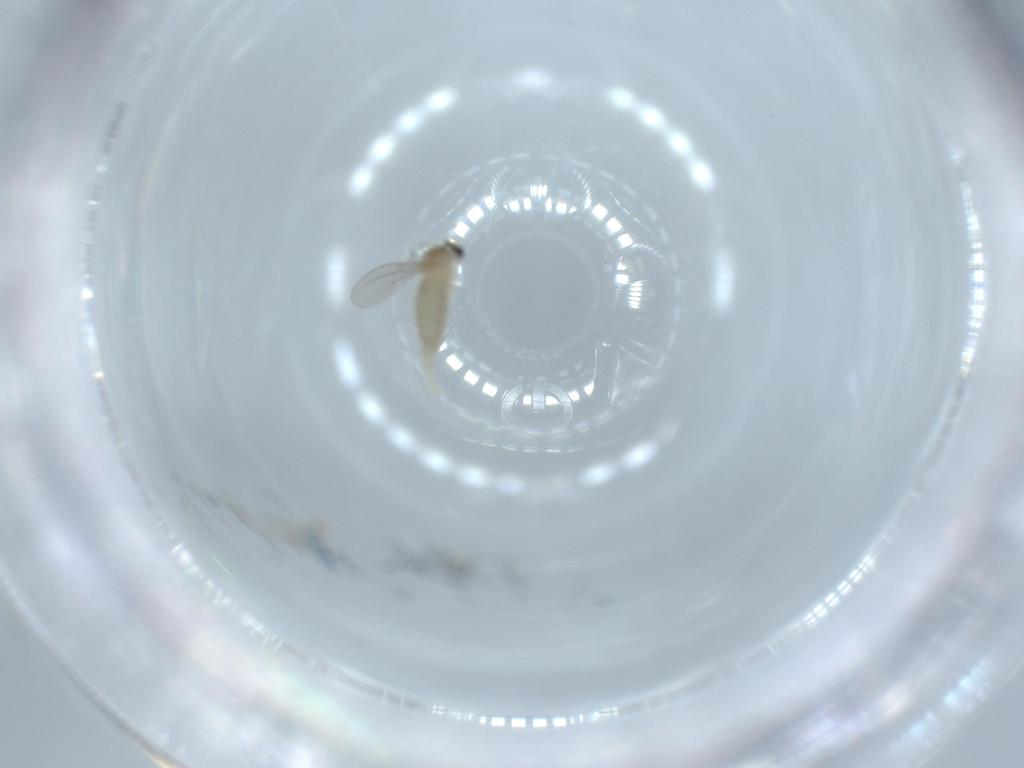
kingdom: Animalia
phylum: Arthropoda
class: Insecta
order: Diptera
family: Cecidomyiidae
